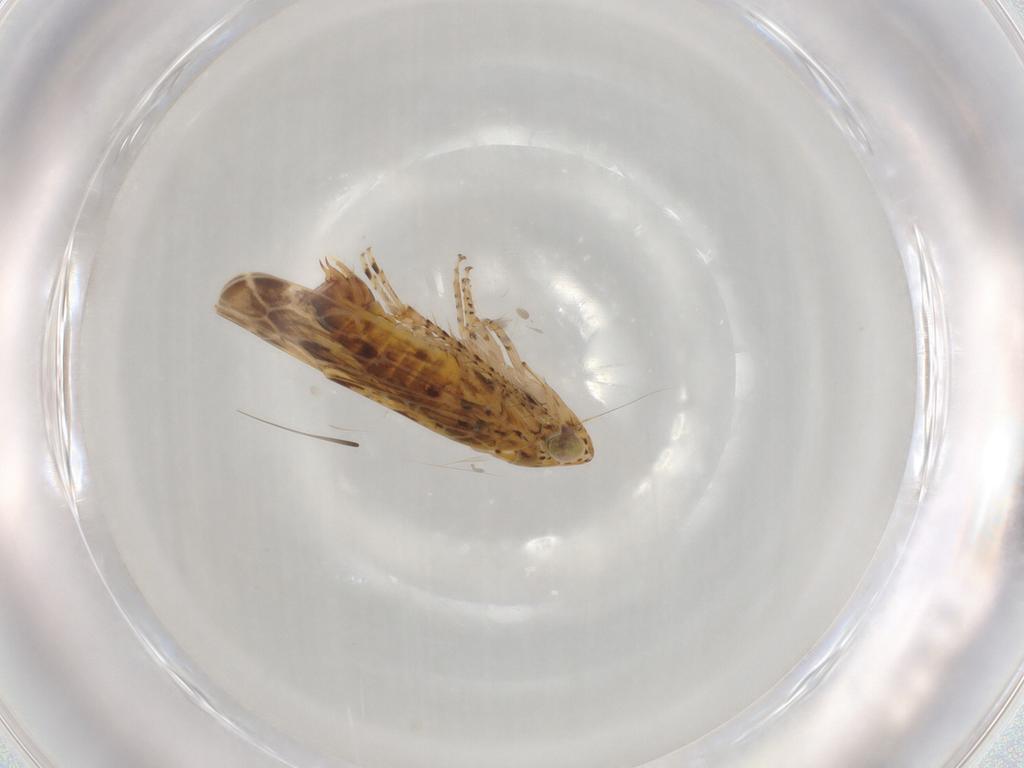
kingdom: Animalia
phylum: Arthropoda
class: Insecta
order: Hemiptera
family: Cicadellidae
